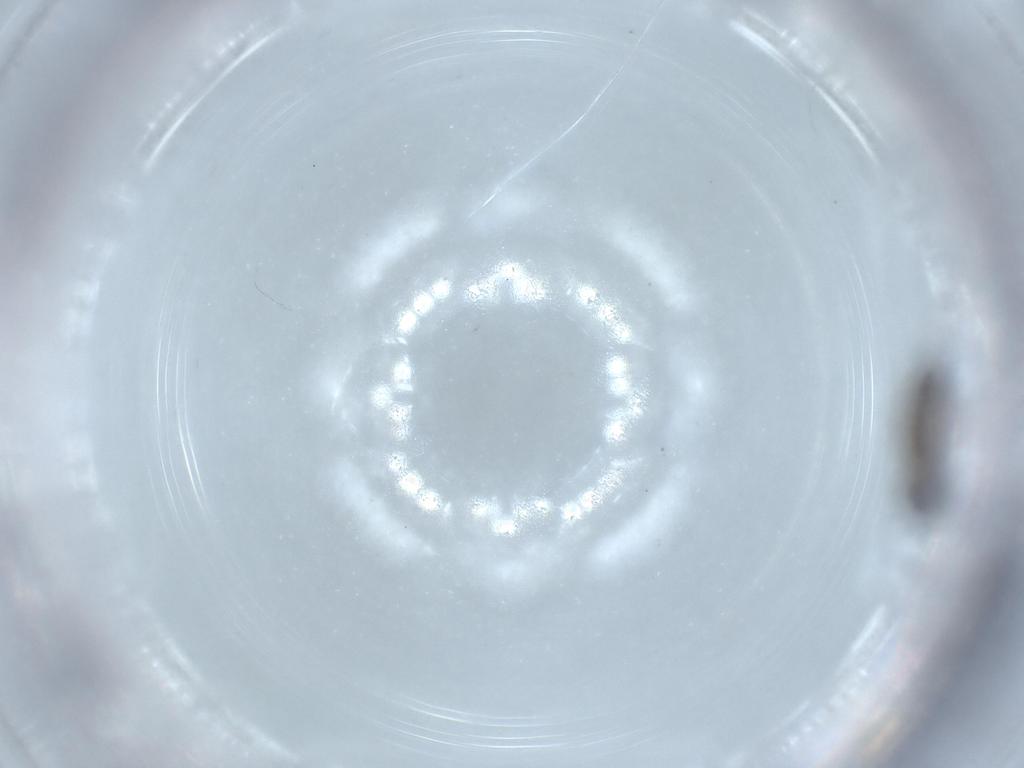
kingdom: Animalia
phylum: Arthropoda
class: Insecta
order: Diptera
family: Sciaridae
